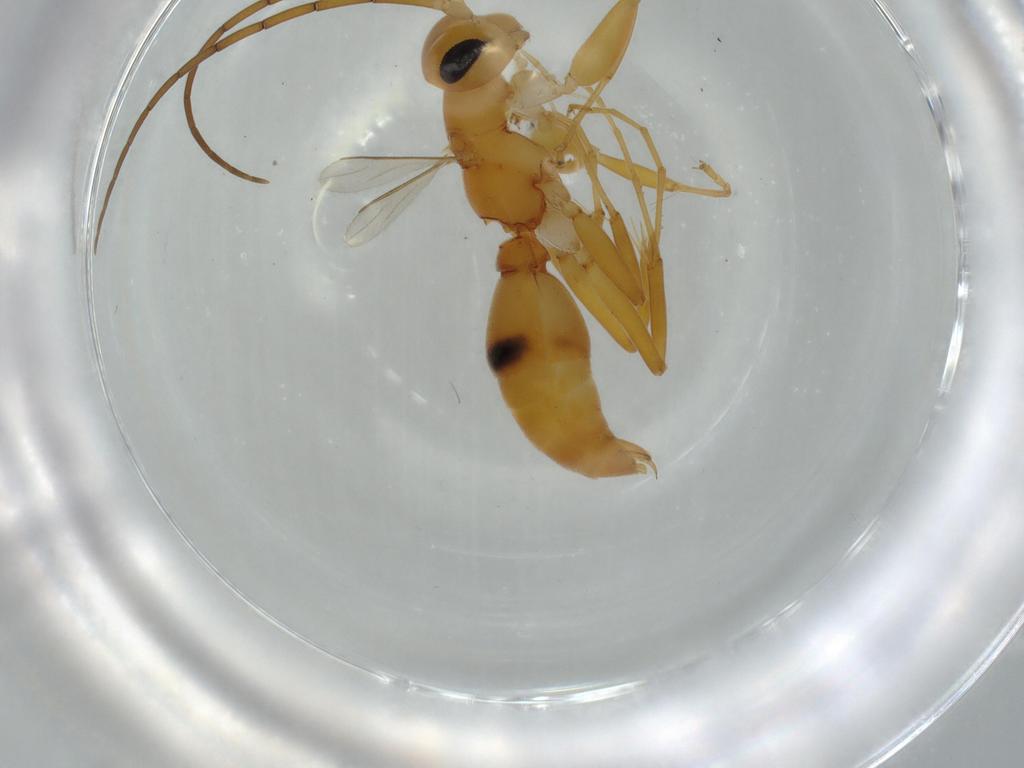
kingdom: Animalia
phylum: Arthropoda
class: Insecta
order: Hymenoptera
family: Rhopalosomatidae
